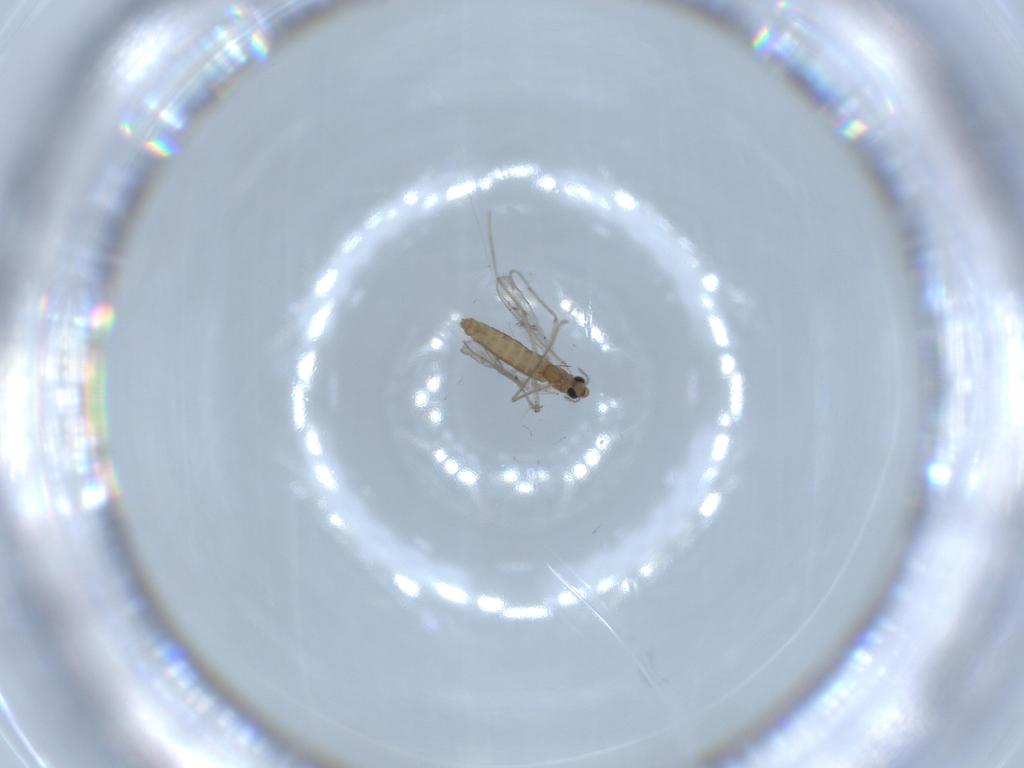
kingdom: Animalia
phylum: Arthropoda
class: Insecta
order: Diptera
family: Chironomidae
